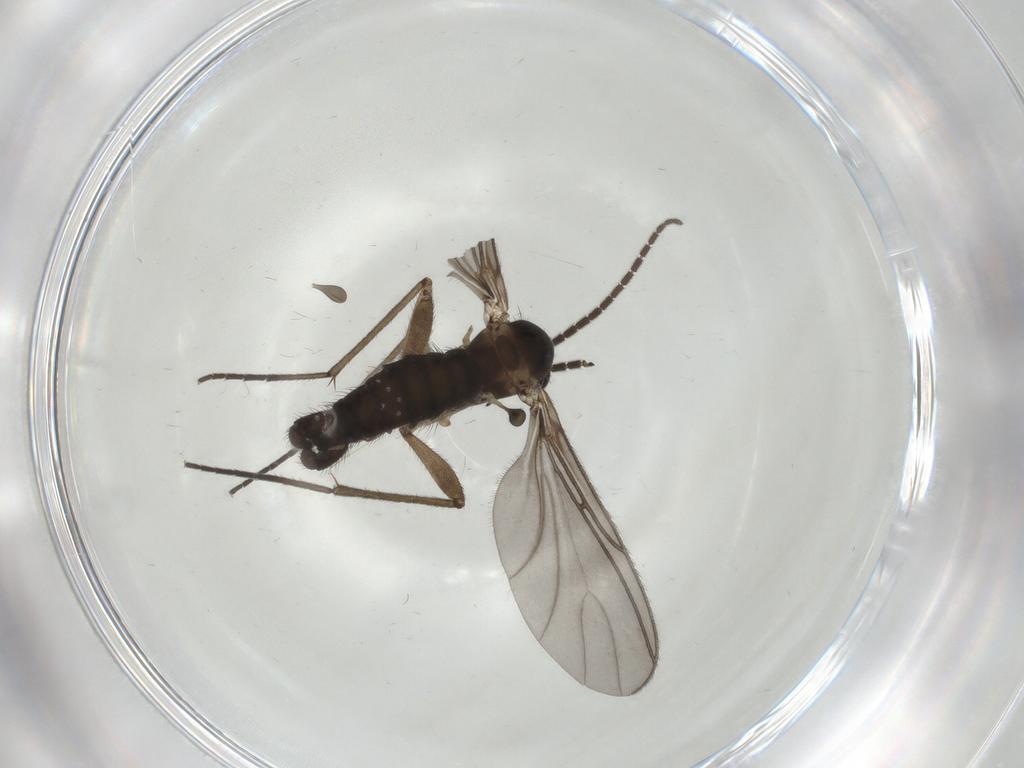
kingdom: Animalia
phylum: Arthropoda
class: Insecta
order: Diptera
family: Sciaridae
